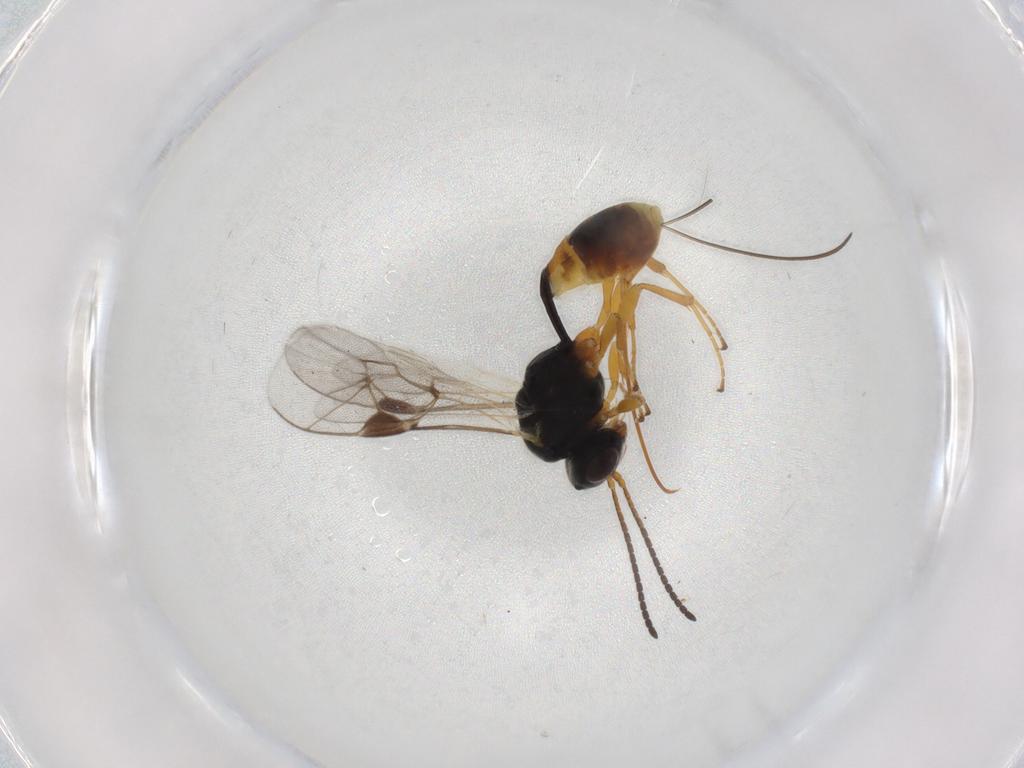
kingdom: Animalia
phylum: Arthropoda
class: Insecta
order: Hymenoptera
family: Ichneumonidae
